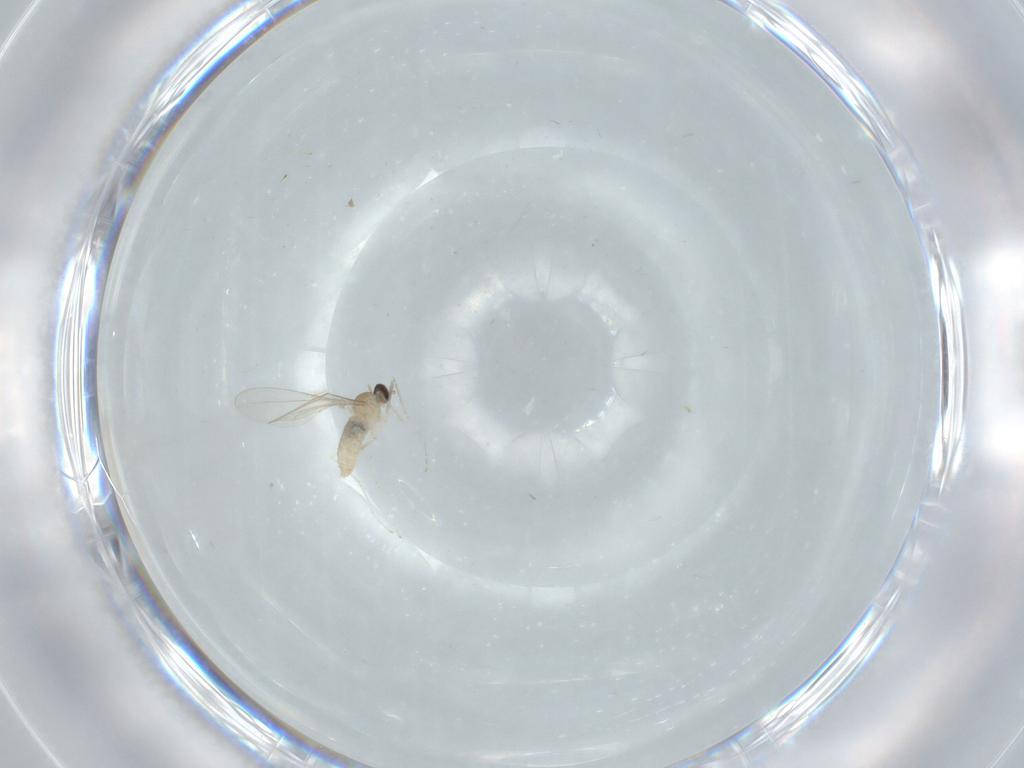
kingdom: Animalia
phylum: Arthropoda
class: Insecta
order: Diptera
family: Cecidomyiidae
